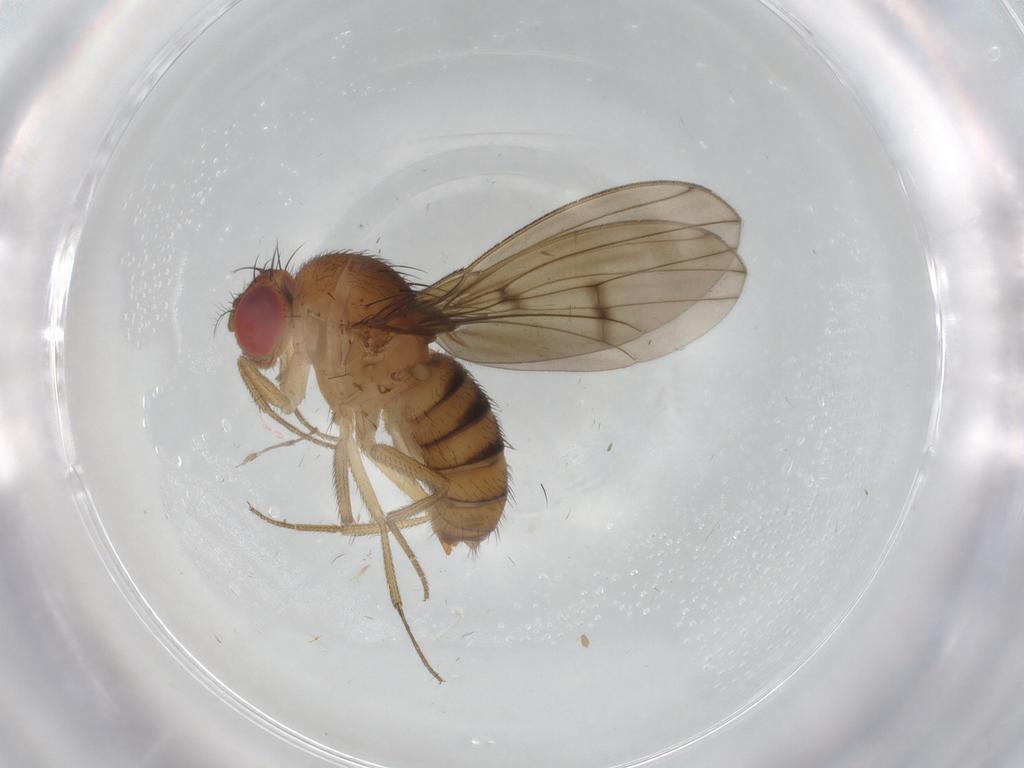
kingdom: Animalia
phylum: Arthropoda
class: Insecta
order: Diptera
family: Drosophilidae
